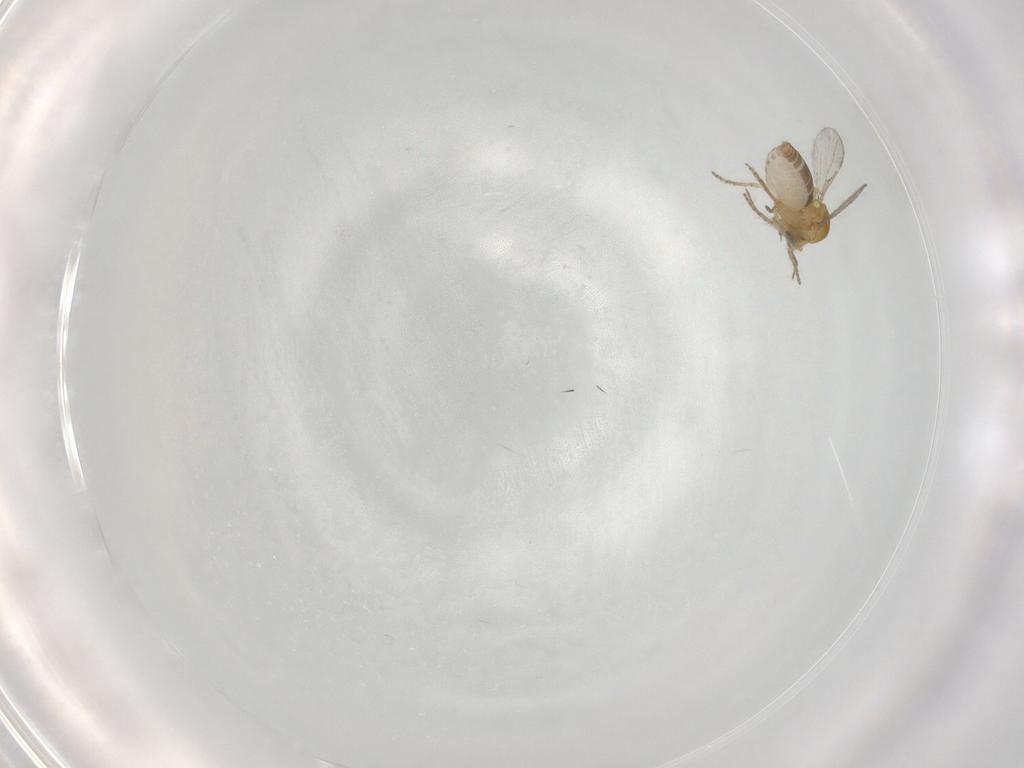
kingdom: Animalia
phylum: Arthropoda
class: Insecta
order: Diptera
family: Ceratopogonidae
